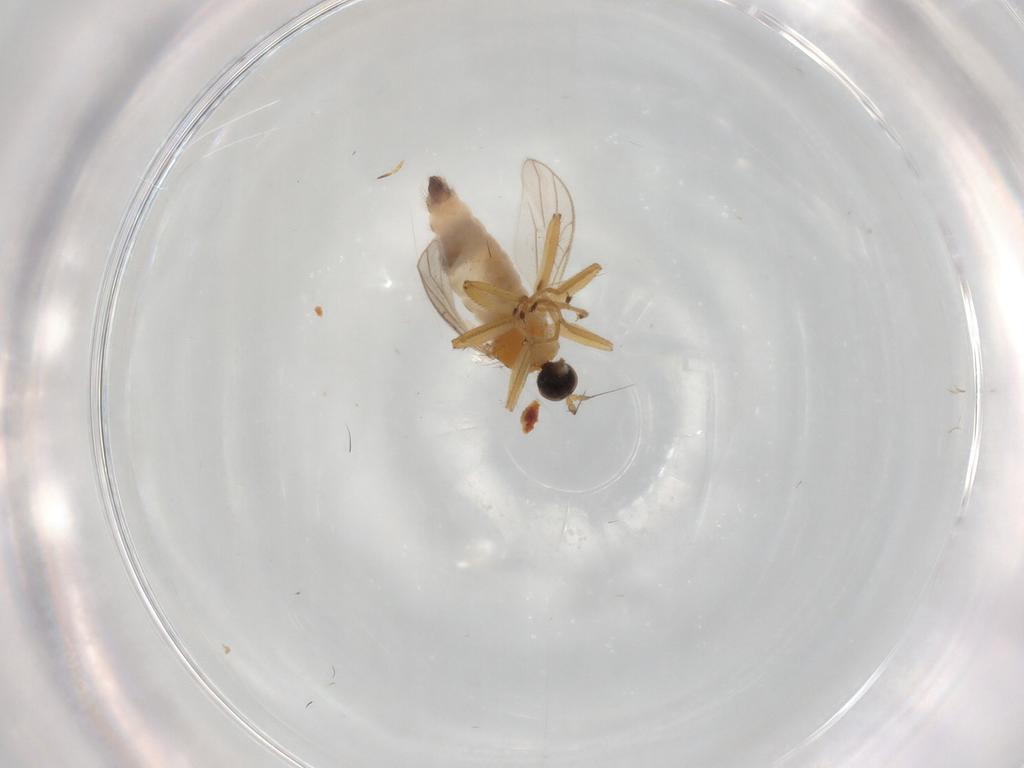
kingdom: Animalia
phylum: Arthropoda
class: Insecta
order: Diptera
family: Hybotidae
